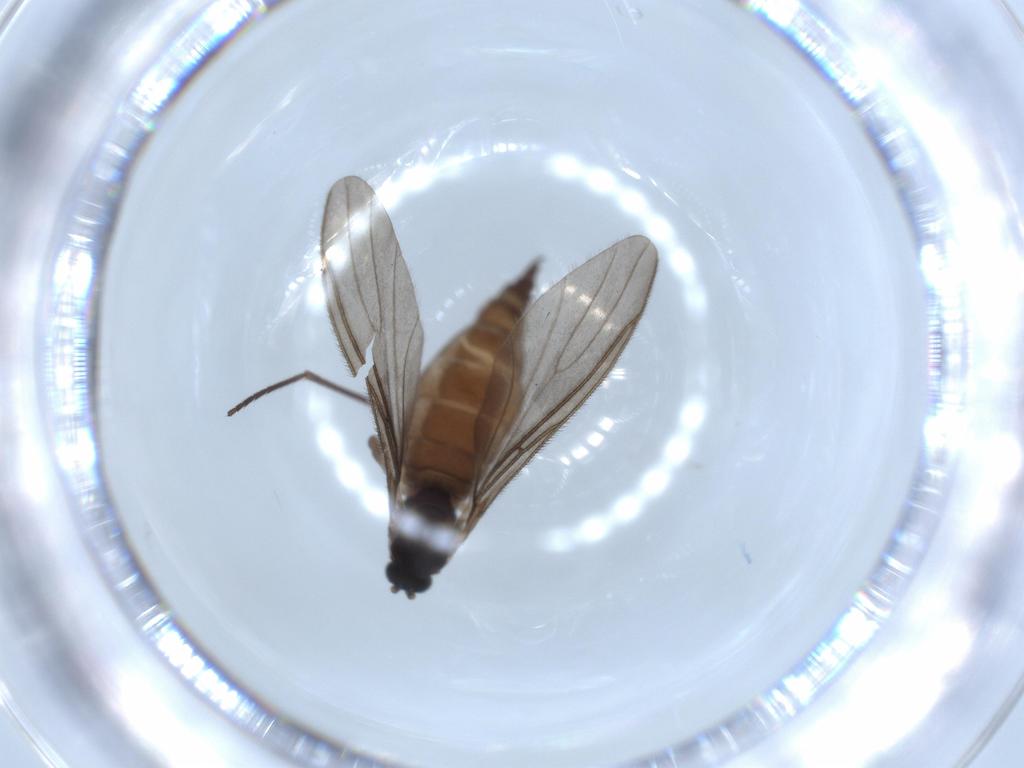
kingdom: Animalia
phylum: Arthropoda
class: Insecta
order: Diptera
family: Sciaridae
